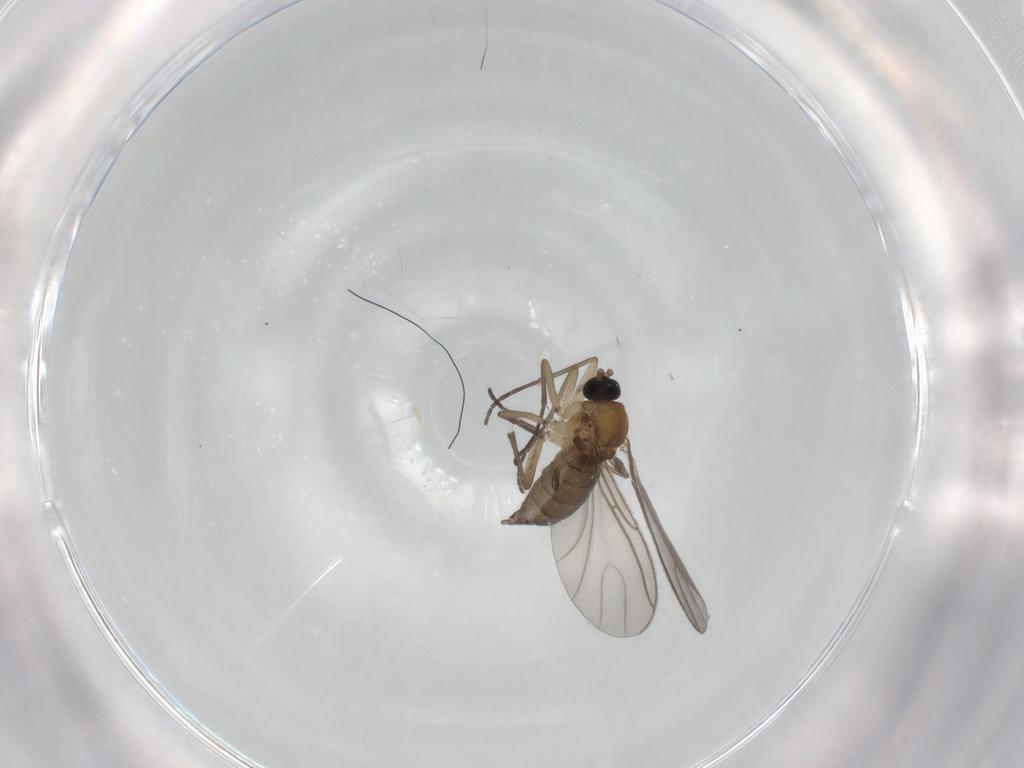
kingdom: Animalia
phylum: Arthropoda
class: Insecta
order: Diptera
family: Sciaridae
